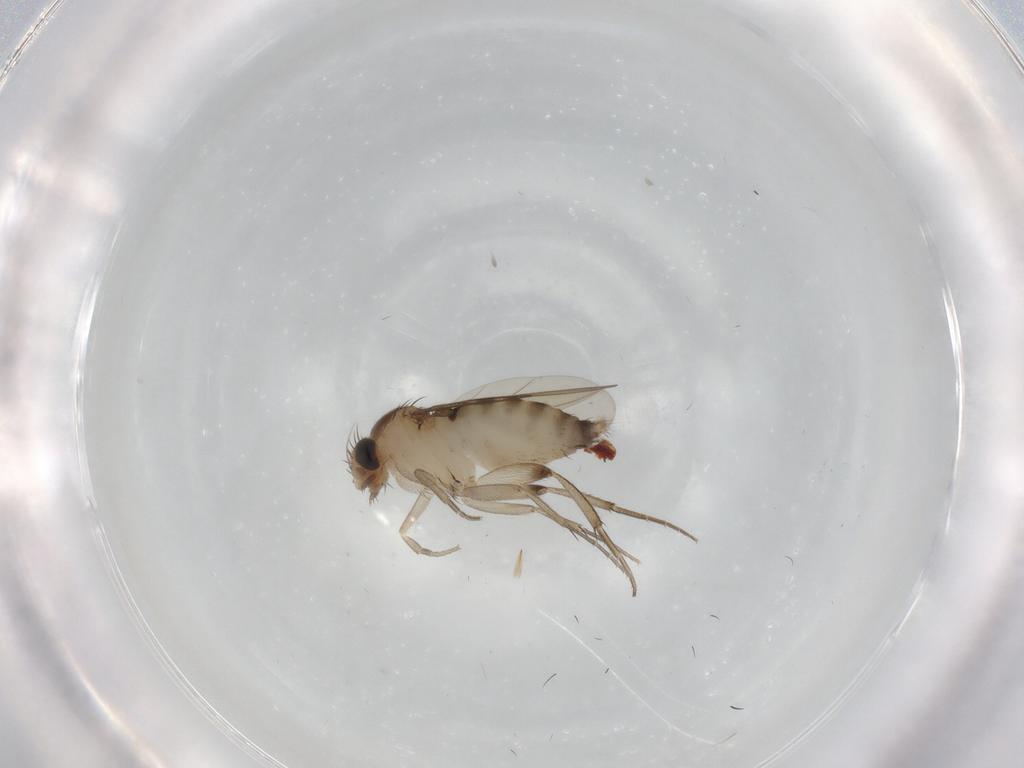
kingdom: Animalia
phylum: Arthropoda
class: Insecta
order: Diptera
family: Phoridae
